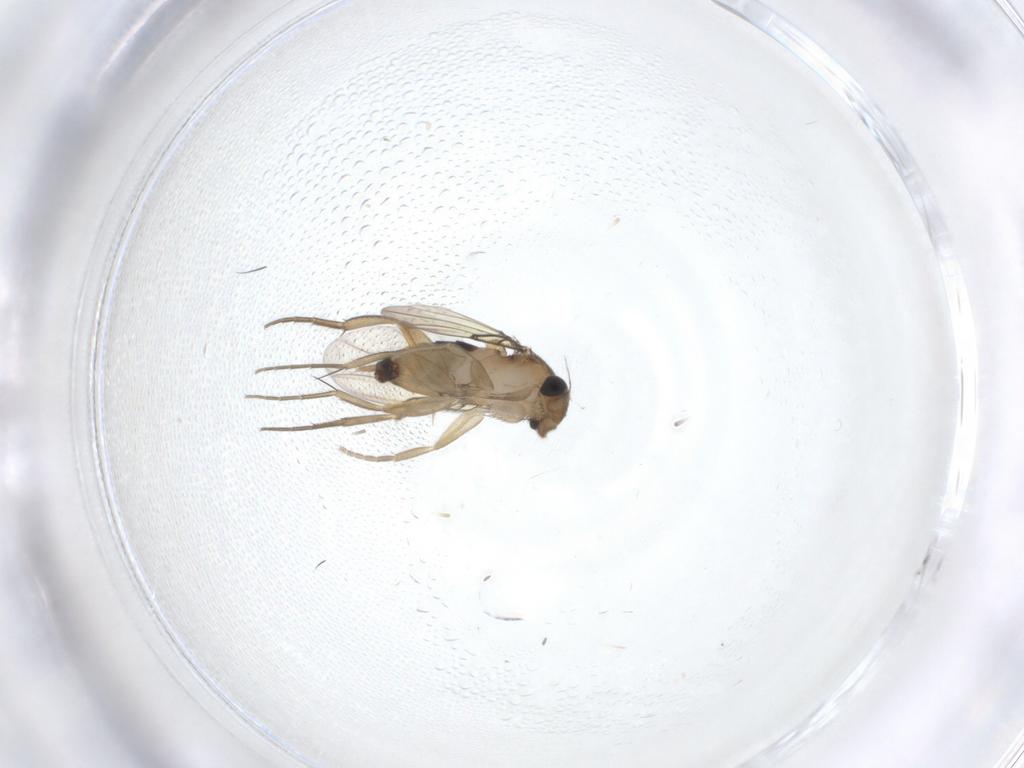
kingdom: Animalia
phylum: Arthropoda
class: Insecta
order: Diptera
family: Phoridae
